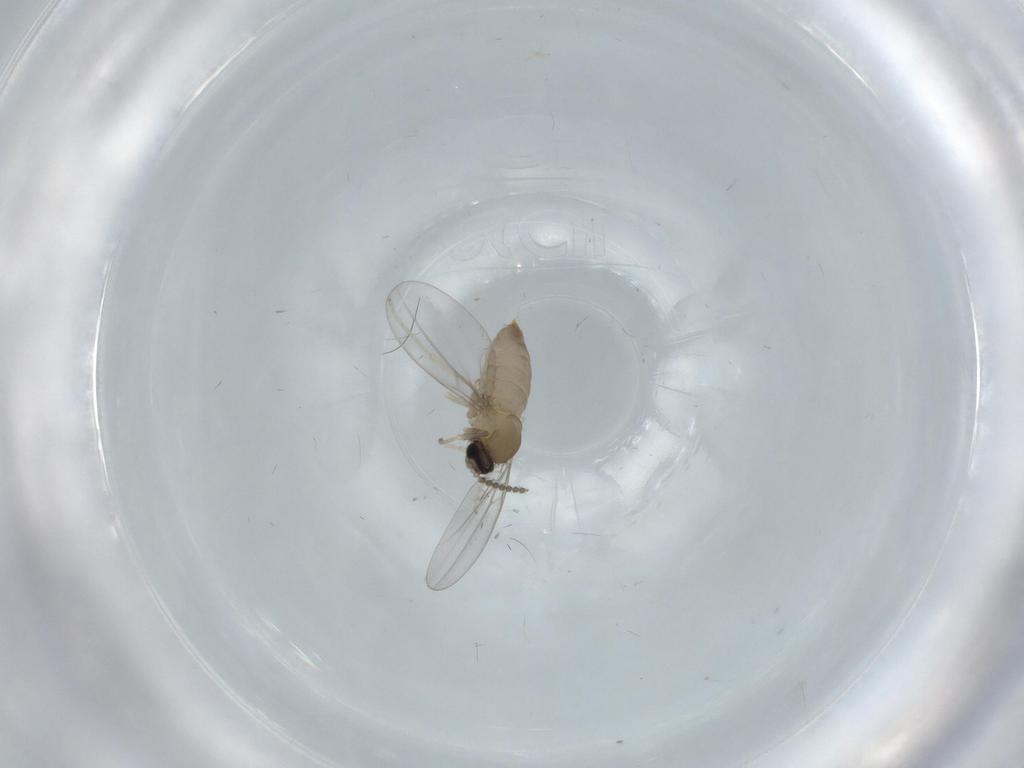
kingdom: Animalia
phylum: Arthropoda
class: Insecta
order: Diptera
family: Cecidomyiidae
